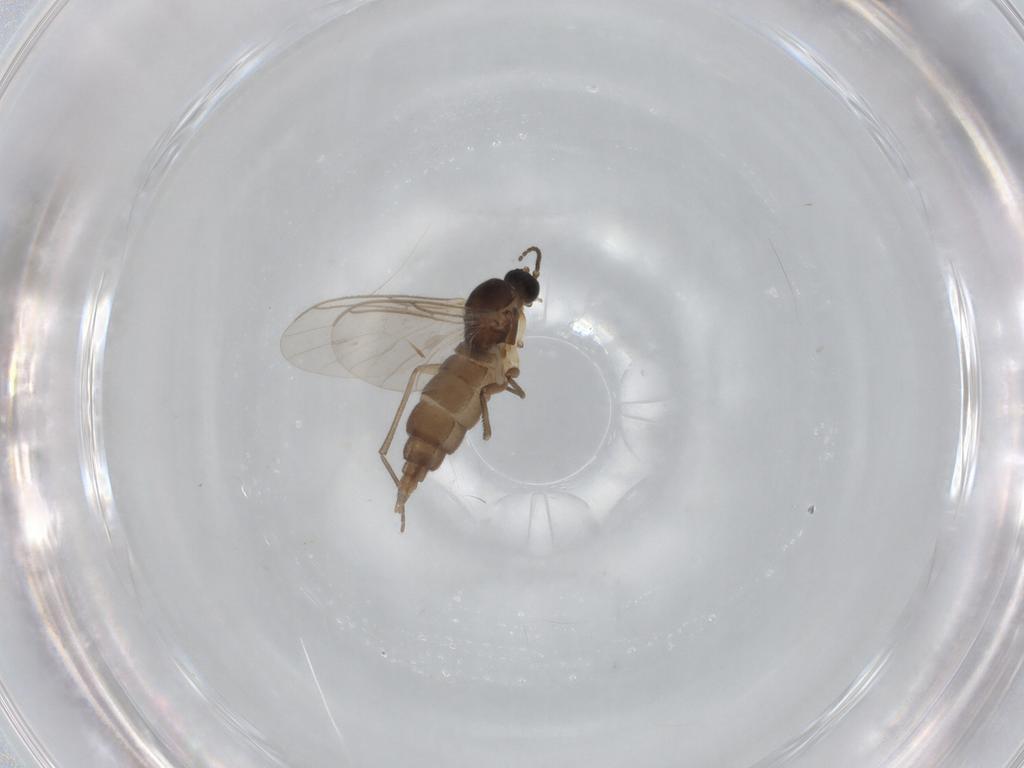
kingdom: Animalia
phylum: Arthropoda
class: Insecta
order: Diptera
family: Sciaridae
